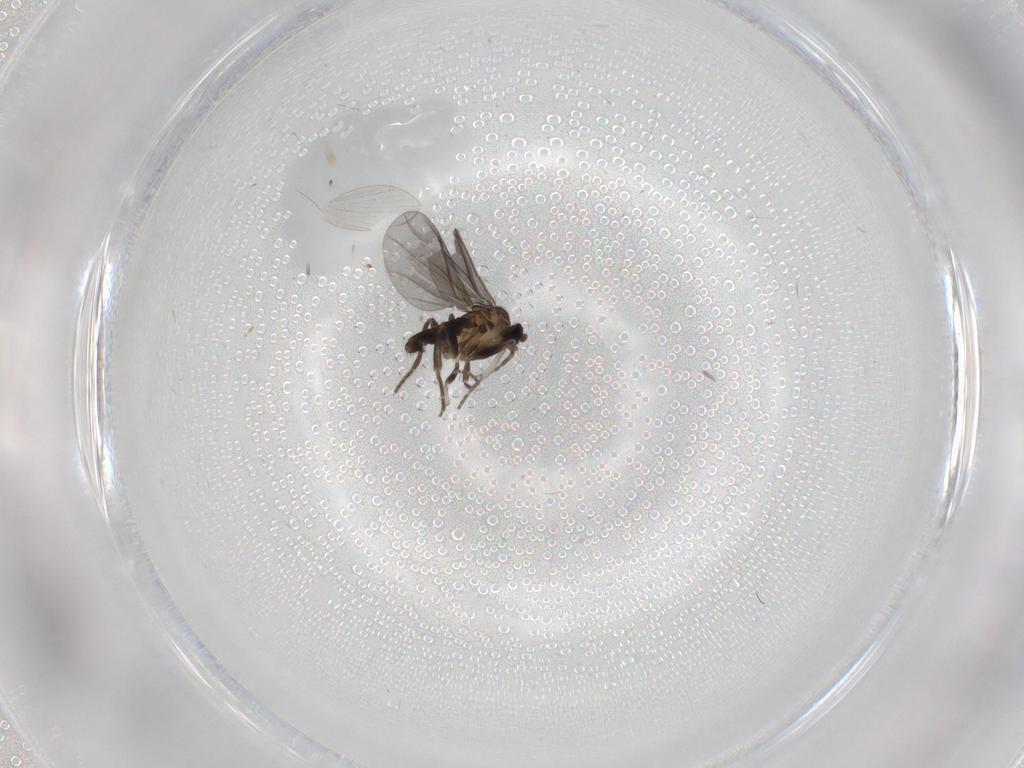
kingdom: Animalia
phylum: Arthropoda
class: Insecta
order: Diptera
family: Phoridae
